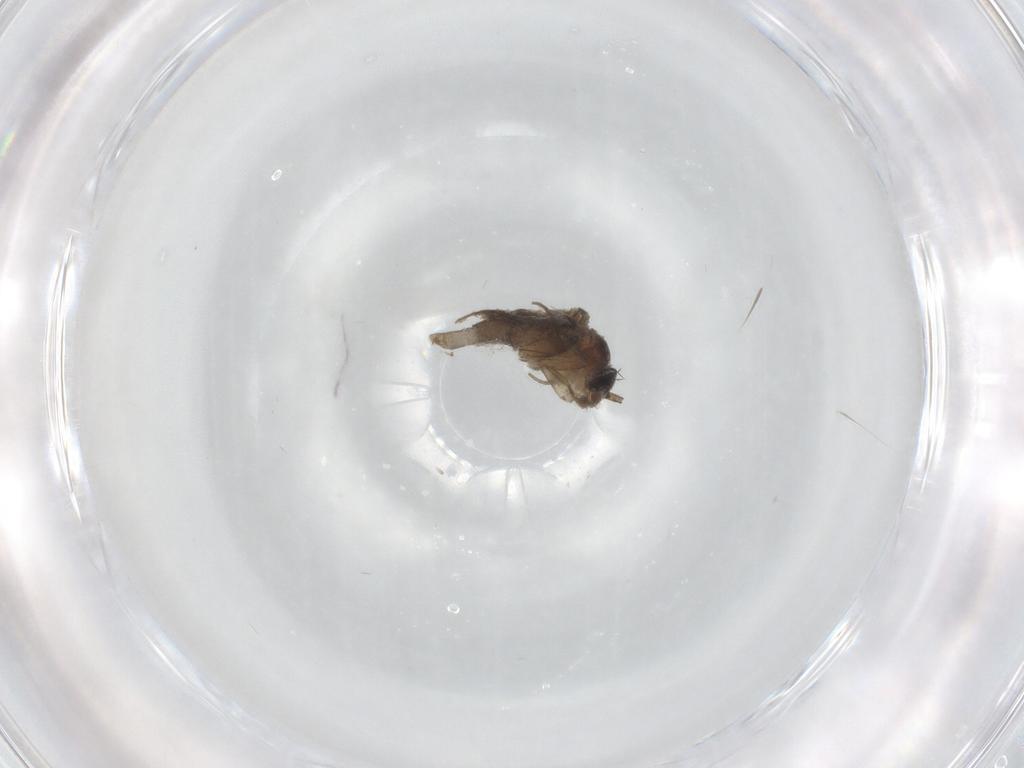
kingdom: Animalia
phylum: Arthropoda
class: Insecta
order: Diptera
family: Phoridae
